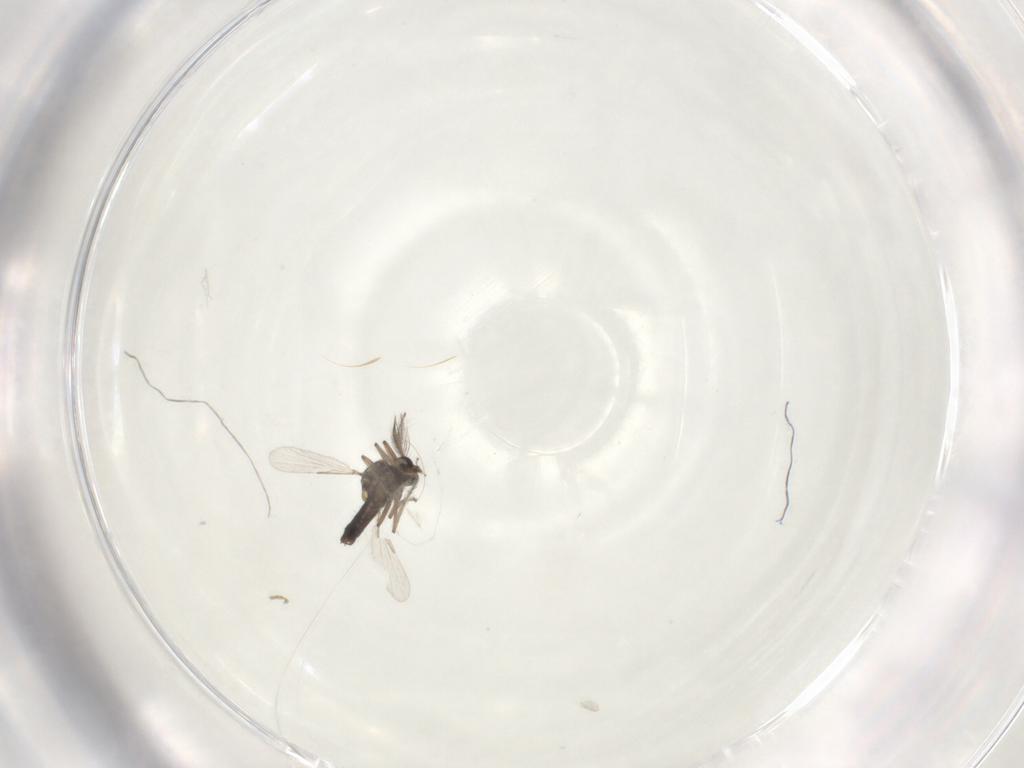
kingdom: Animalia
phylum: Arthropoda
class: Insecta
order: Diptera
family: Ceratopogonidae
